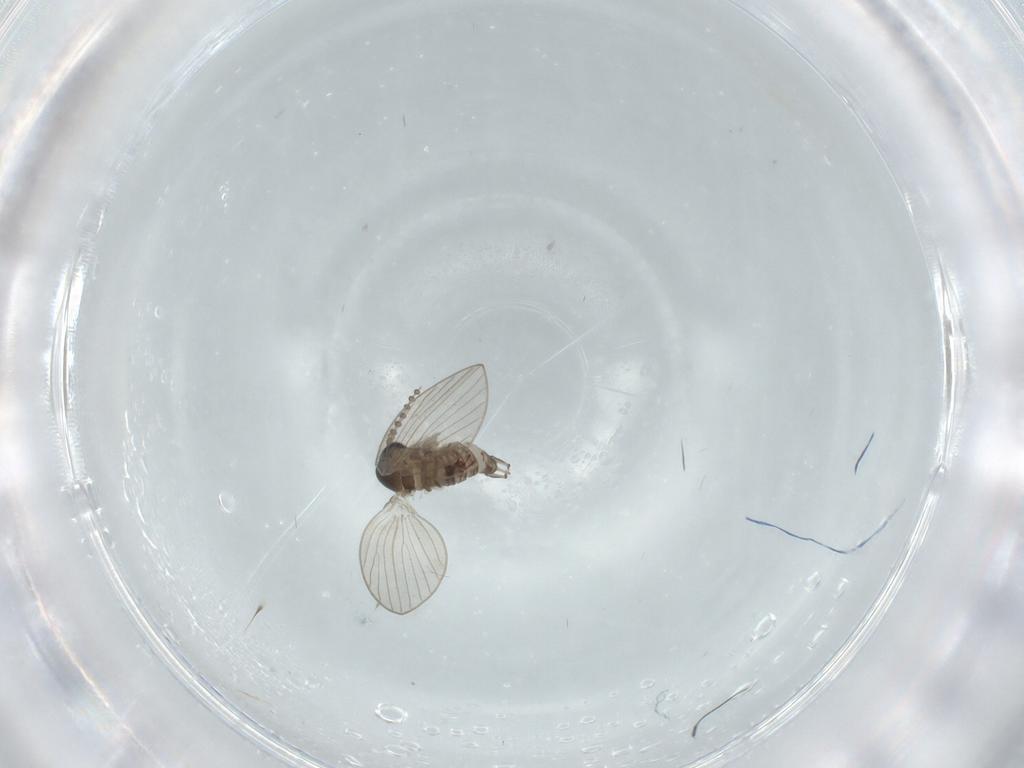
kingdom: Animalia
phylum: Arthropoda
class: Insecta
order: Diptera
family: Psychodidae
